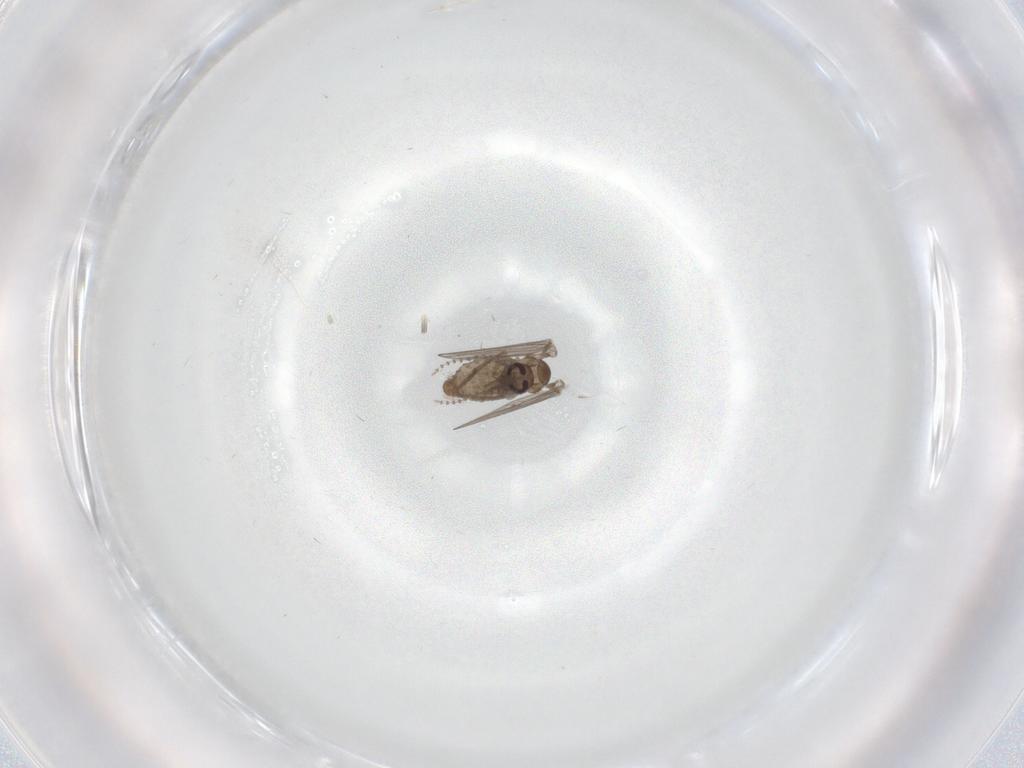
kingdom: Animalia
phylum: Arthropoda
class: Insecta
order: Diptera
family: Psychodidae
